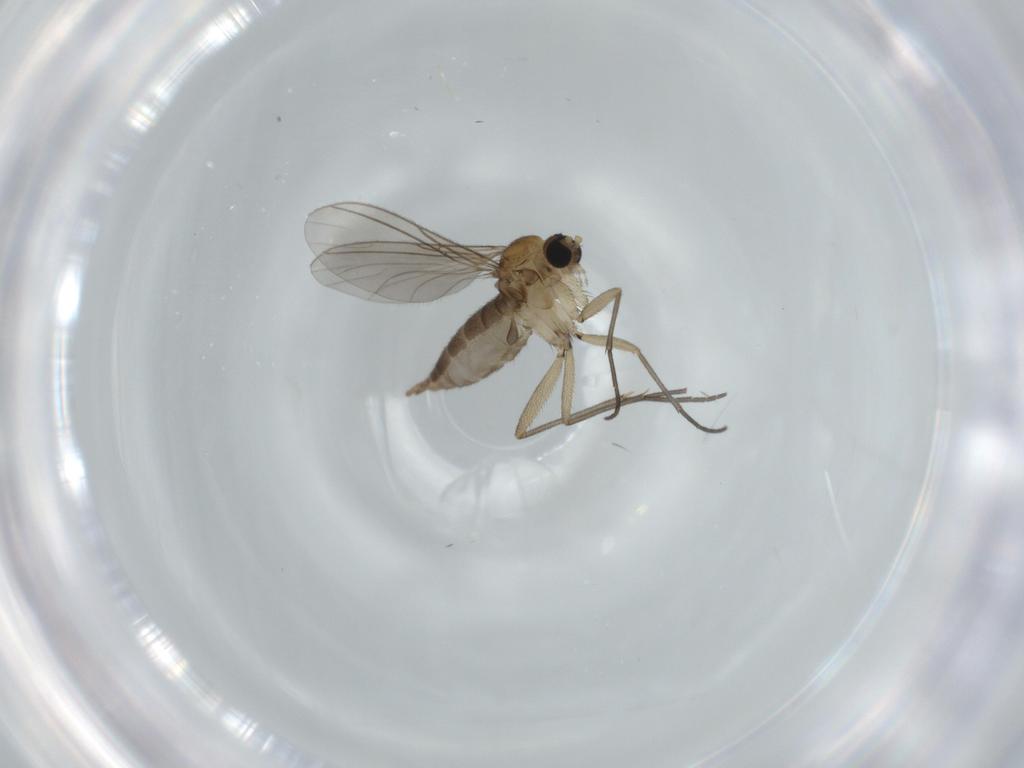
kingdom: Animalia
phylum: Arthropoda
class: Insecta
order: Diptera
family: Sciaridae
